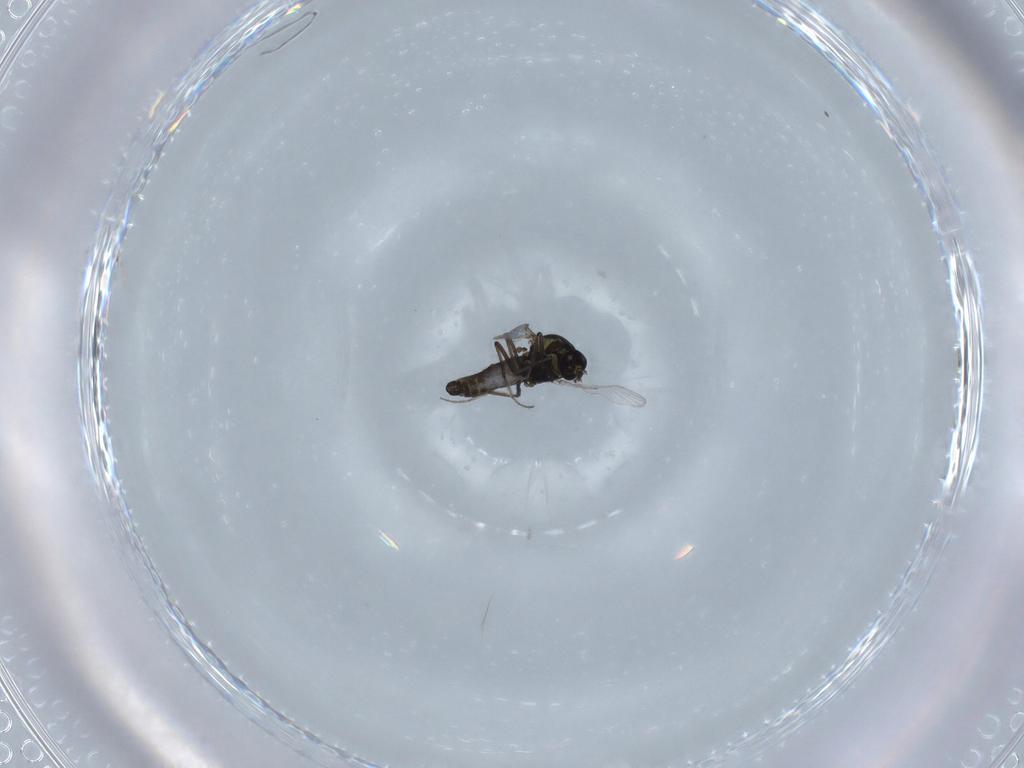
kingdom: Animalia
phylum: Arthropoda
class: Insecta
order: Diptera
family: Ceratopogonidae
